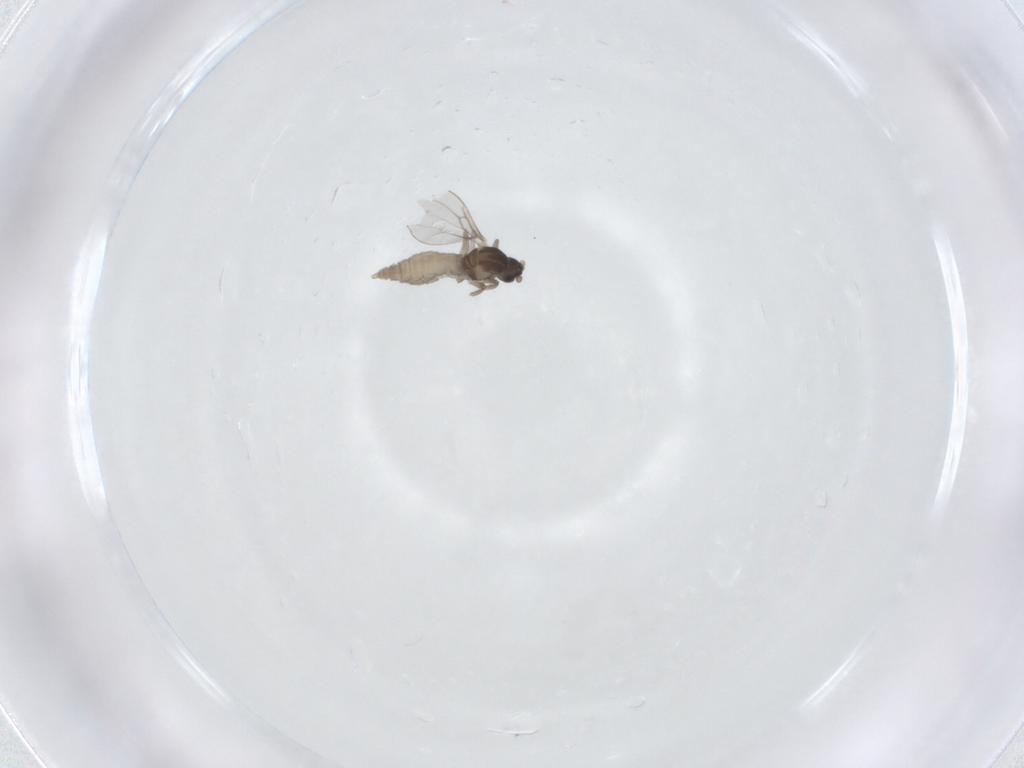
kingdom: Animalia
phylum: Arthropoda
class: Insecta
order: Diptera
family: Cecidomyiidae
